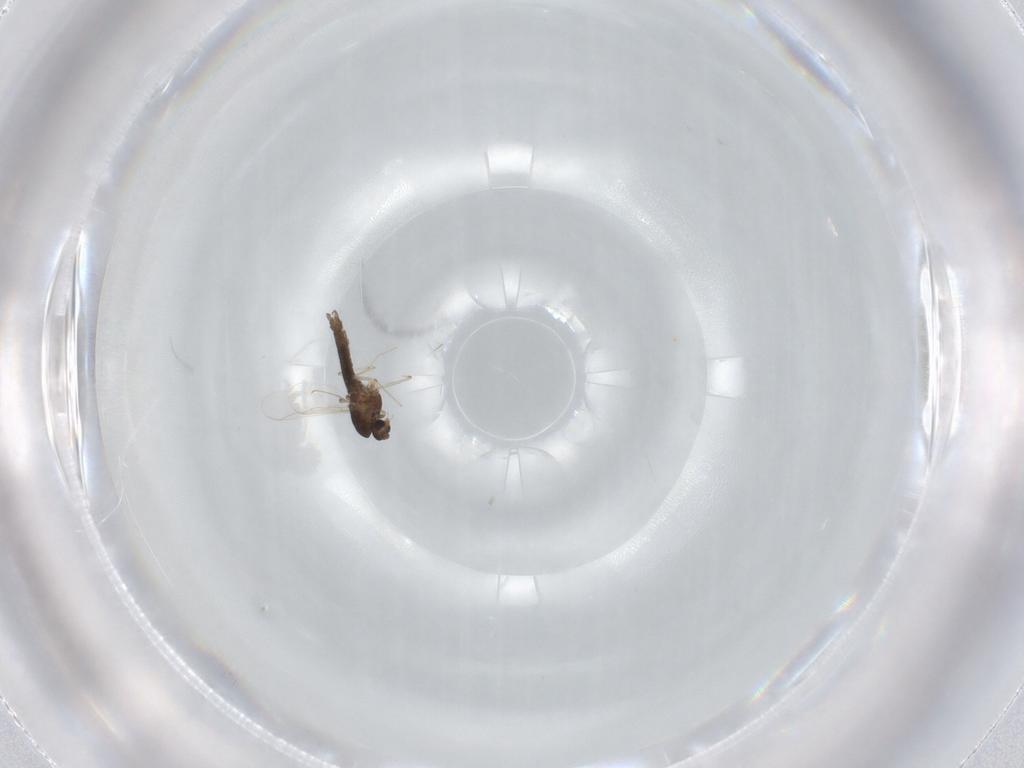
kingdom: Animalia
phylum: Arthropoda
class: Insecta
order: Diptera
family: Chironomidae
